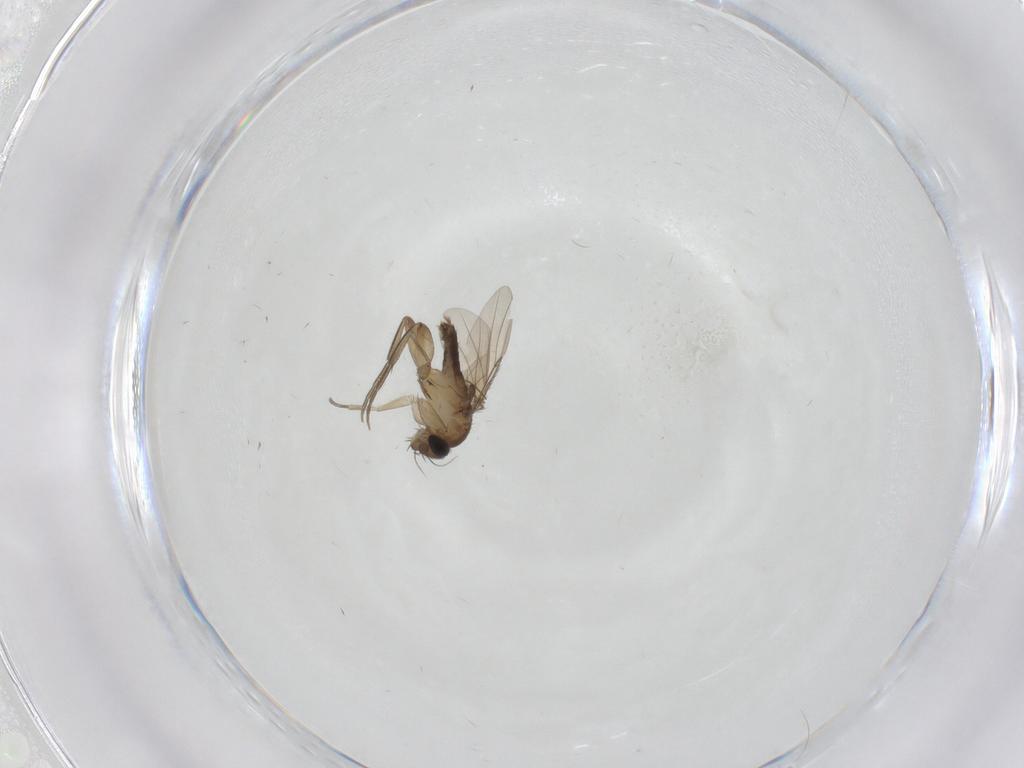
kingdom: Animalia
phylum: Arthropoda
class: Insecta
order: Diptera
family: Phoridae
